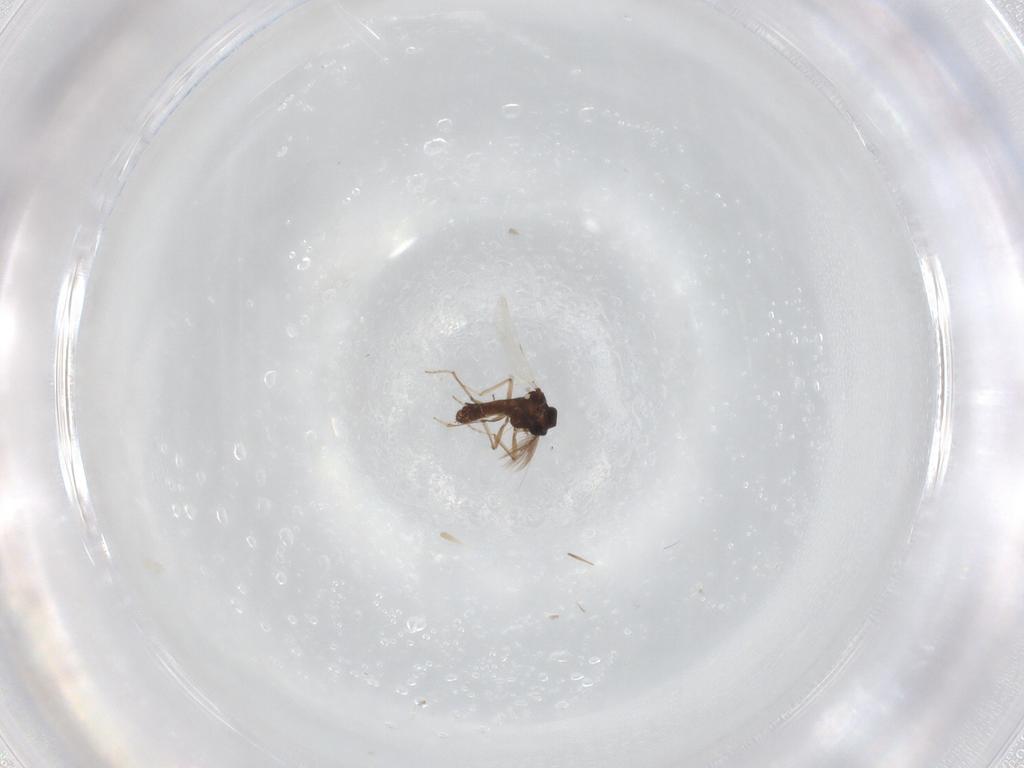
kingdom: Animalia
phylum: Arthropoda
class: Insecta
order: Diptera
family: Ceratopogonidae
